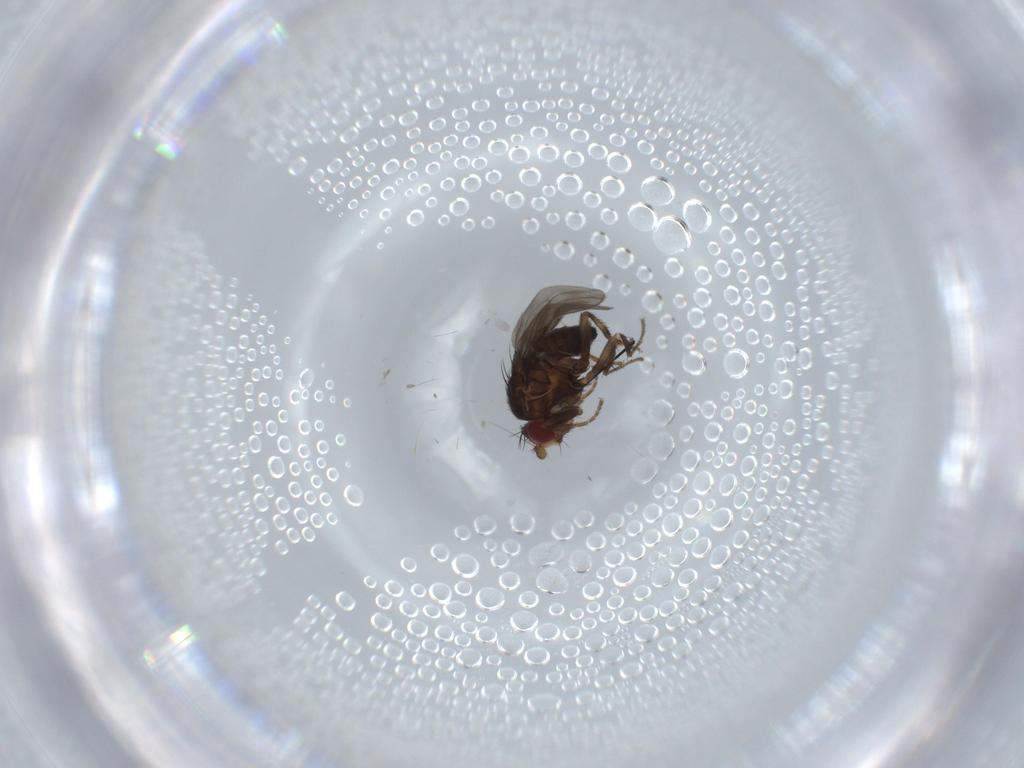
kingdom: Animalia
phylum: Arthropoda
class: Insecta
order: Diptera
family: Sphaeroceridae
